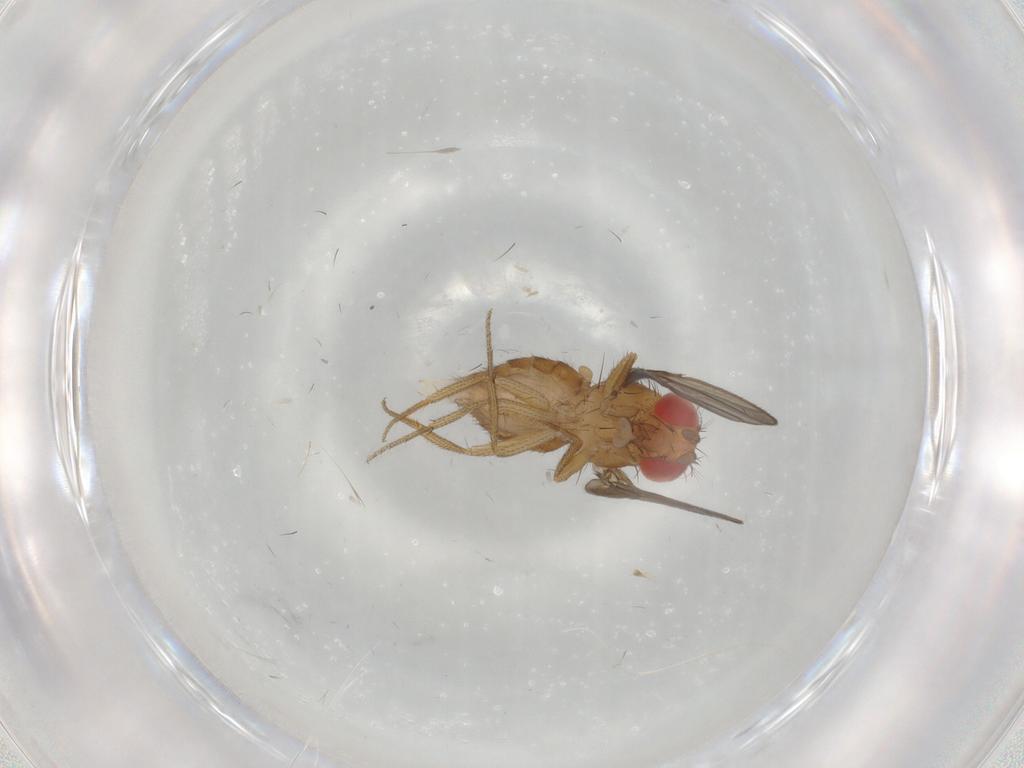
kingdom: Animalia
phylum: Arthropoda
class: Insecta
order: Diptera
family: Drosophilidae
